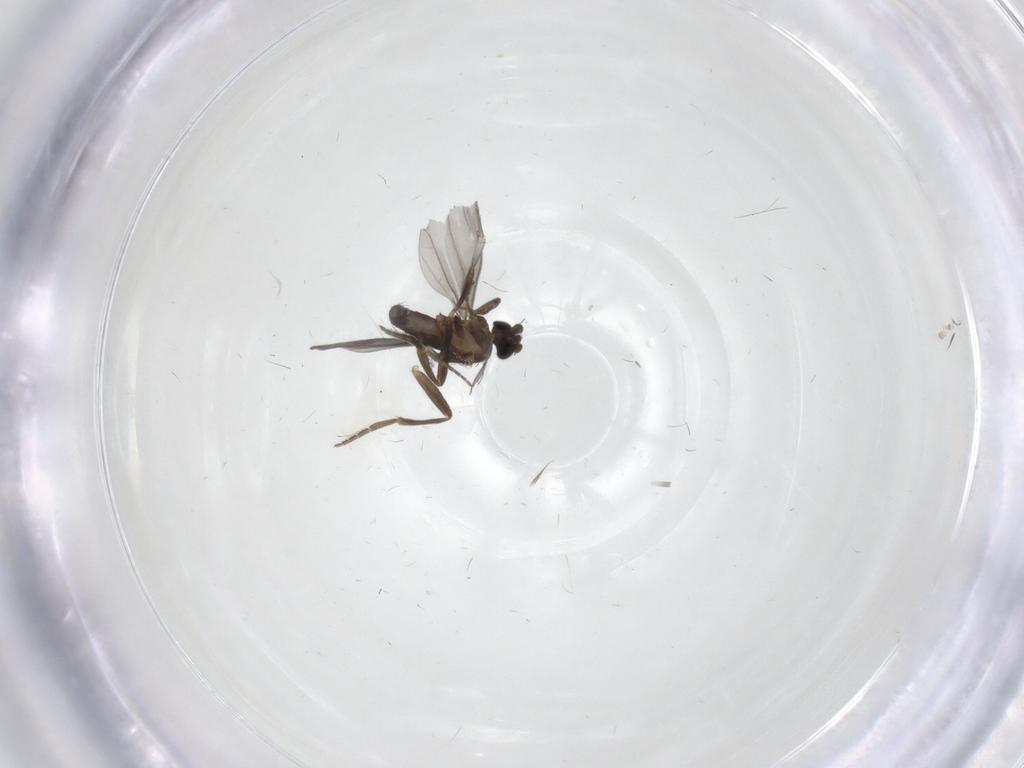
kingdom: Animalia
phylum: Arthropoda
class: Insecta
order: Diptera
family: Phoridae
